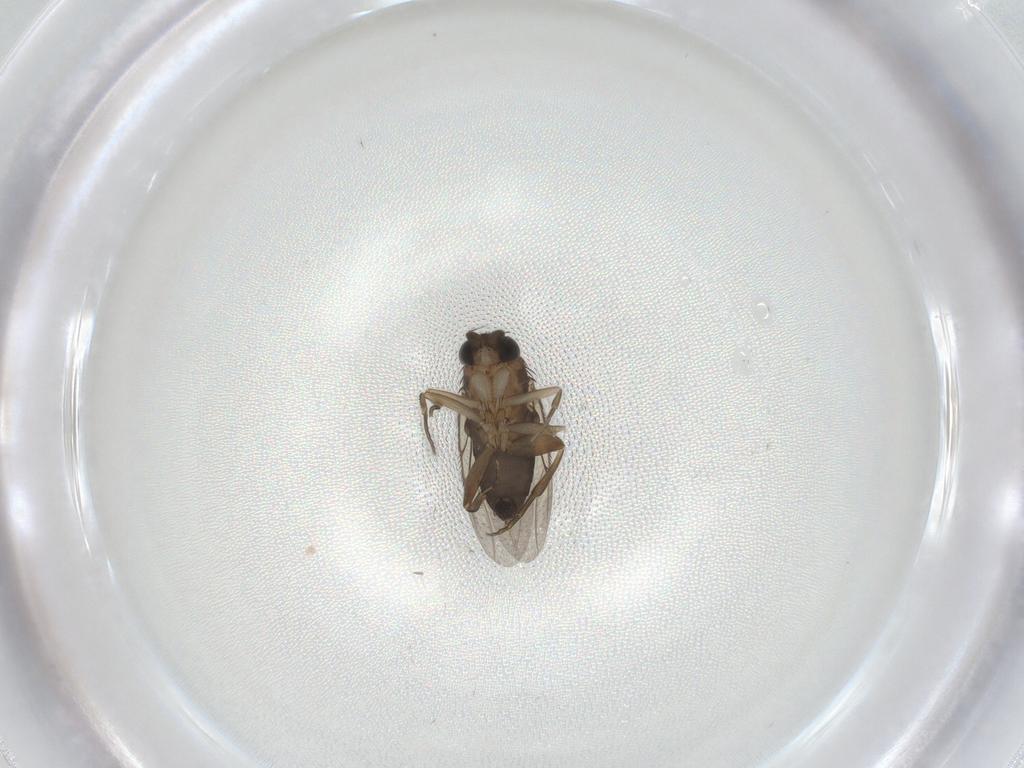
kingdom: Animalia
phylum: Arthropoda
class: Insecta
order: Diptera
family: Phoridae
